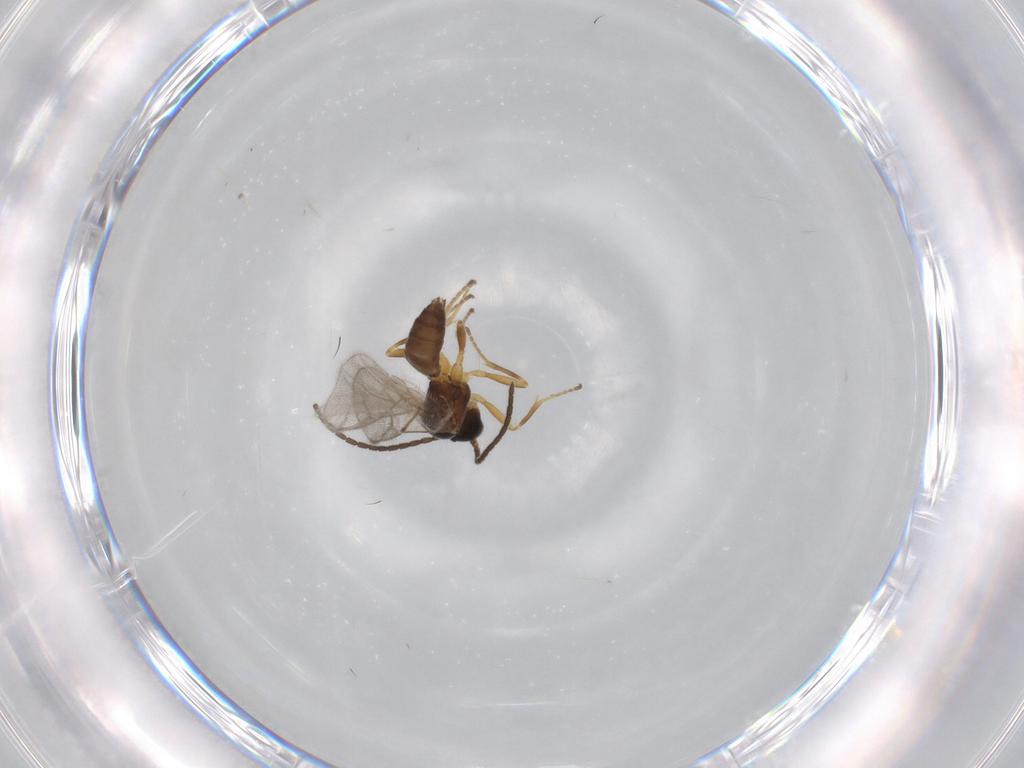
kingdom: Animalia
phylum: Arthropoda
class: Insecta
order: Hymenoptera
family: Braconidae
